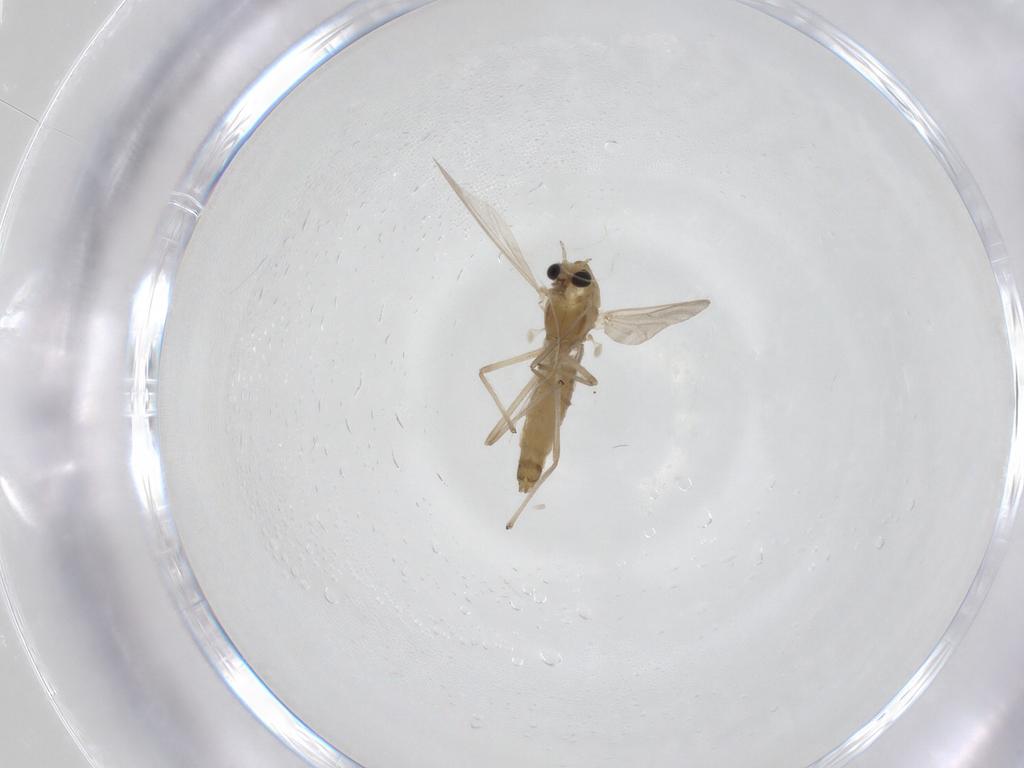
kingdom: Animalia
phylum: Arthropoda
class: Insecta
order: Diptera
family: Chironomidae
